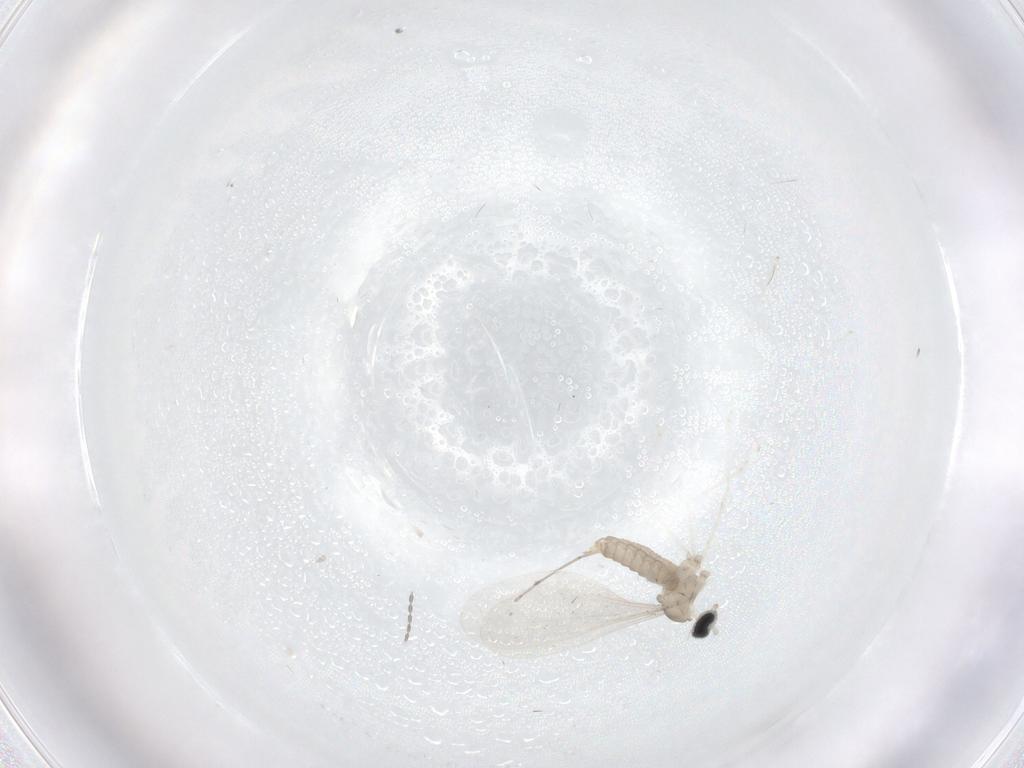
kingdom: Animalia
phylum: Arthropoda
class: Insecta
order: Diptera
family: Cecidomyiidae
